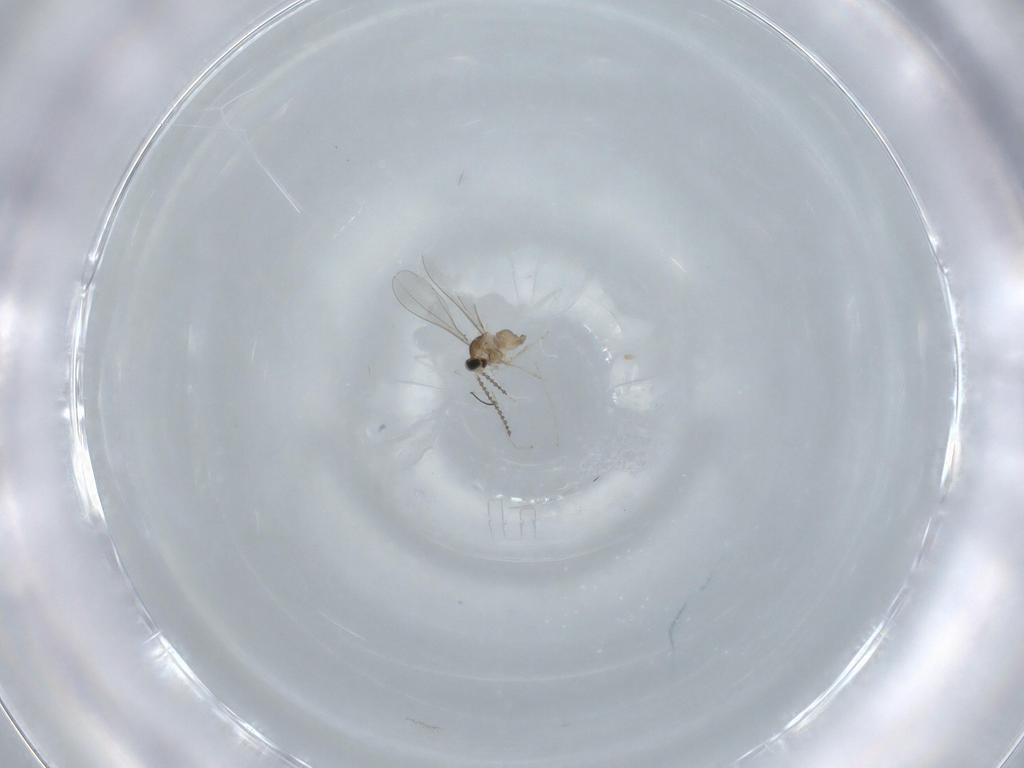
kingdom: Animalia
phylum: Arthropoda
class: Insecta
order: Diptera
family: Cecidomyiidae
